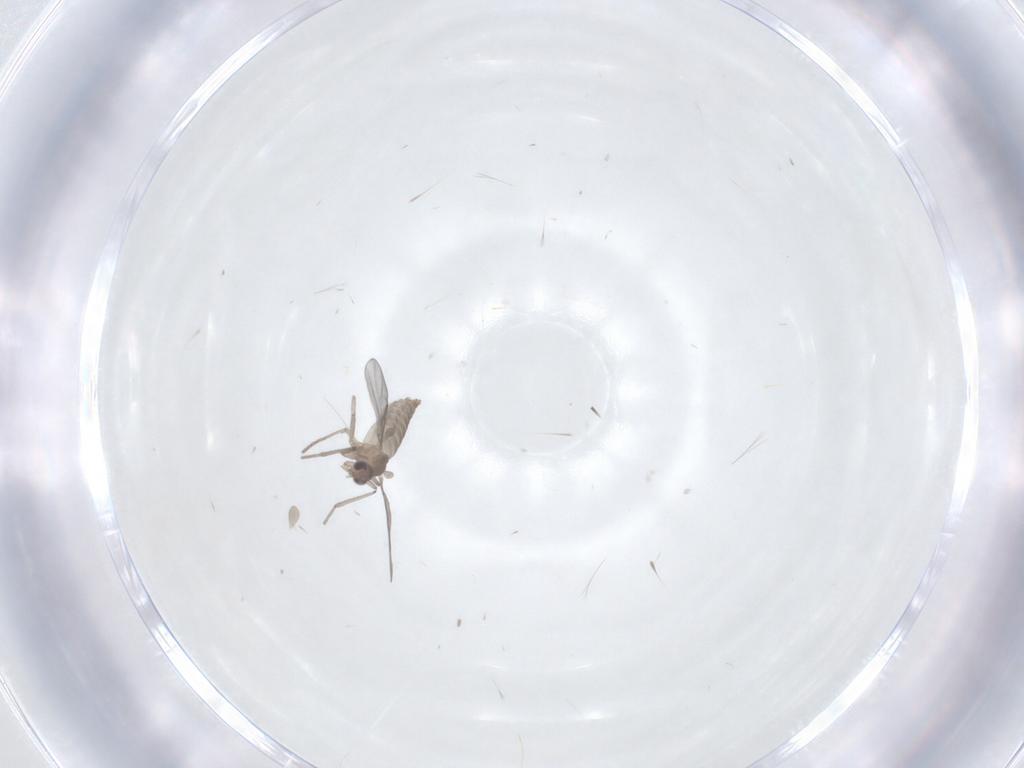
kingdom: Animalia
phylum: Arthropoda
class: Insecta
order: Diptera
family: Cecidomyiidae
